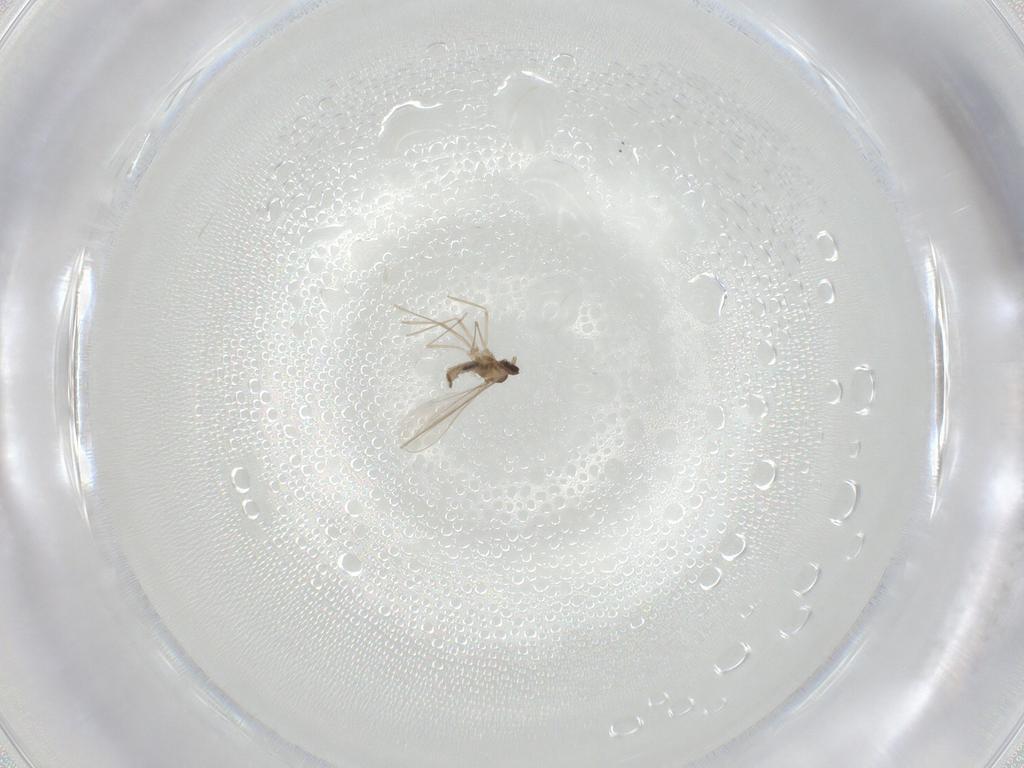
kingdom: Animalia
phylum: Arthropoda
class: Insecta
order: Diptera
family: Cecidomyiidae
